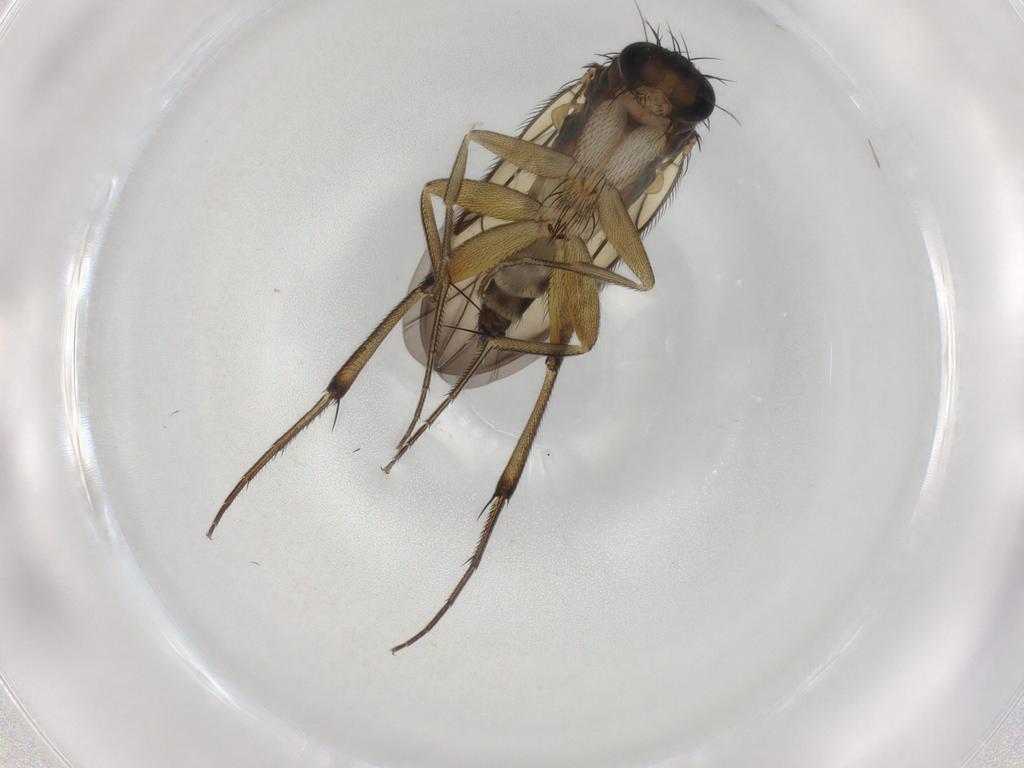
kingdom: Animalia
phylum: Arthropoda
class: Insecta
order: Diptera
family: Phoridae
